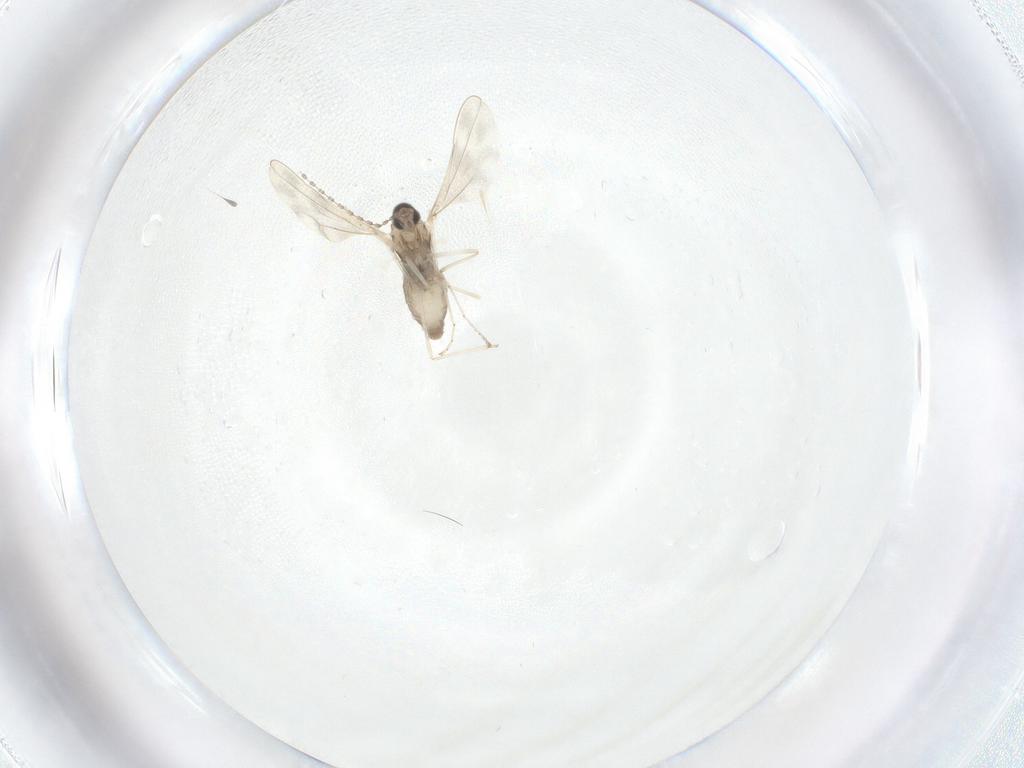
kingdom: Animalia
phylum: Arthropoda
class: Insecta
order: Diptera
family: Cecidomyiidae
